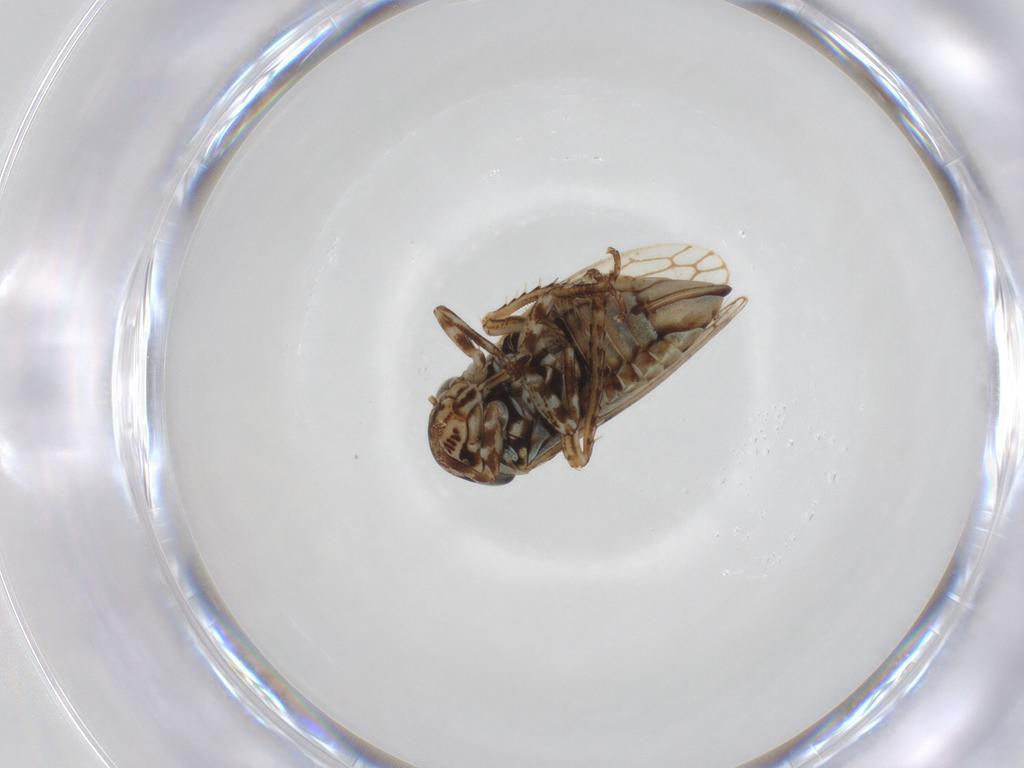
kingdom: Animalia
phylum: Arthropoda
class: Insecta
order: Hemiptera
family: Cicadellidae
